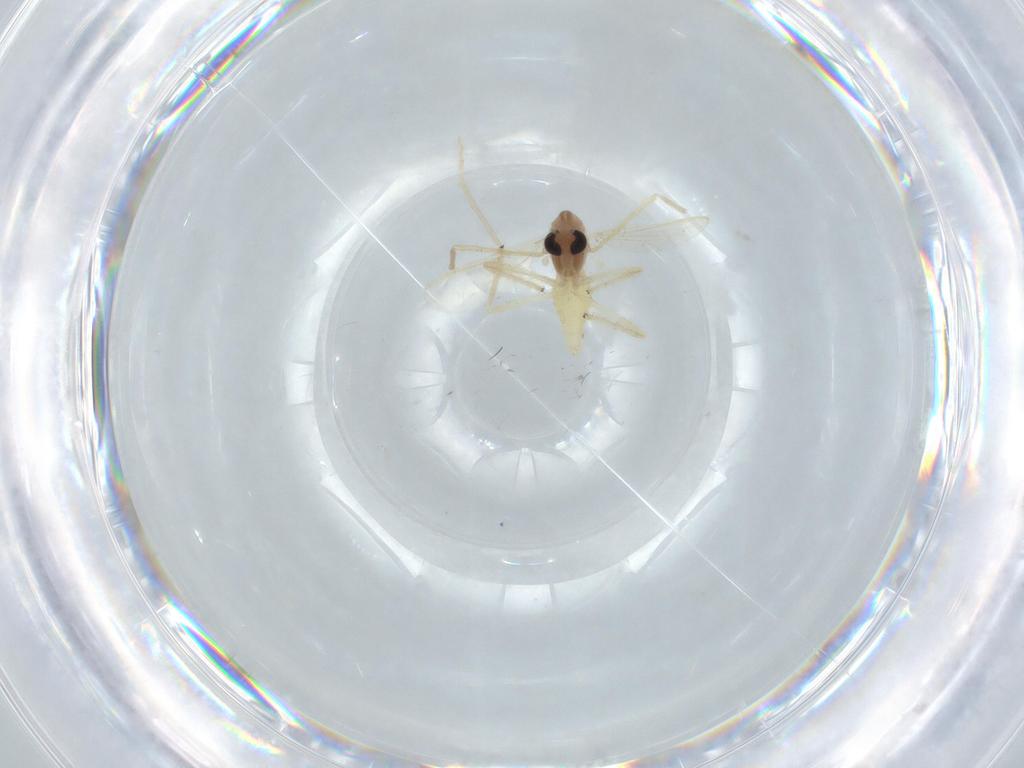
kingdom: Animalia
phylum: Arthropoda
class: Insecta
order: Diptera
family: Chironomidae
